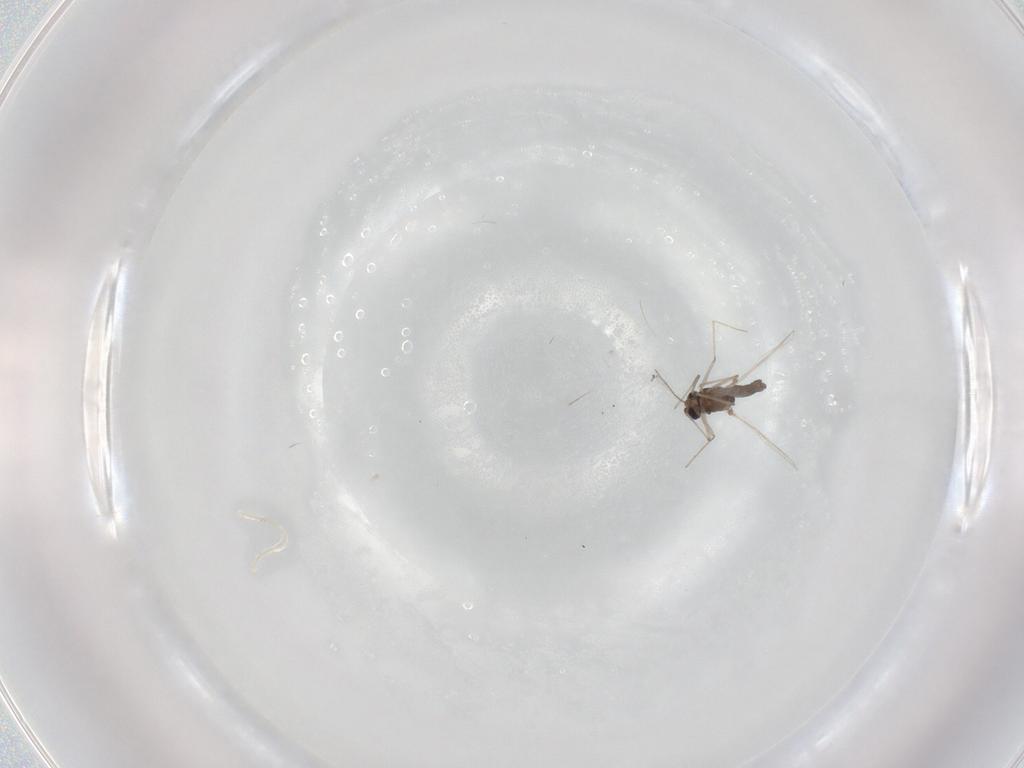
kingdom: Animalia
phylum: Arthropoda
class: Insecta
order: Diptera
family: Chironomidae
